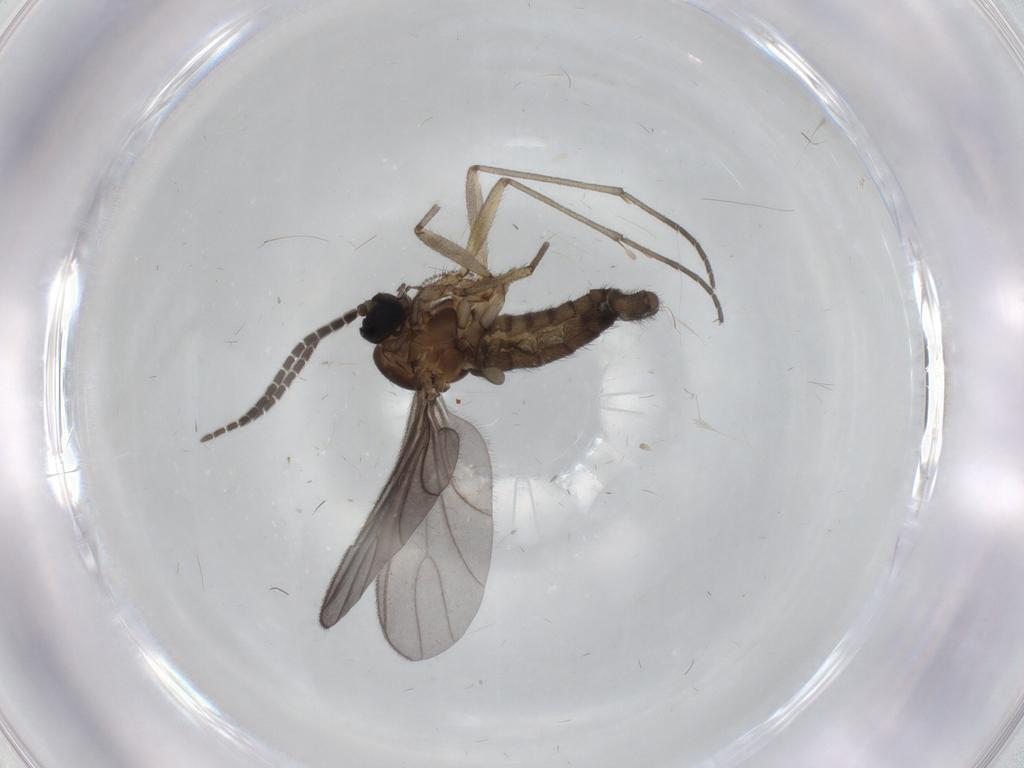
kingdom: Animalia
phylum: Arthropoda
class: Insecta
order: Diptera
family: Sciaridae
